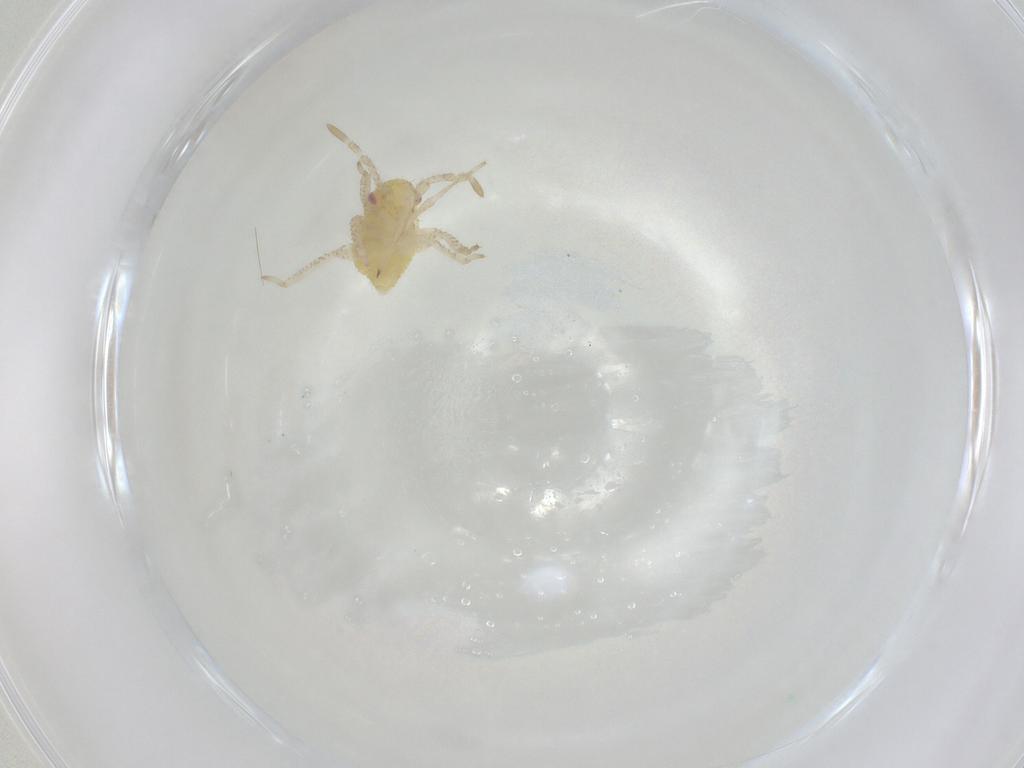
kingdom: Animalia
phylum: Arthropoda
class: Insecta
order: Hemiptera
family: Miridae
